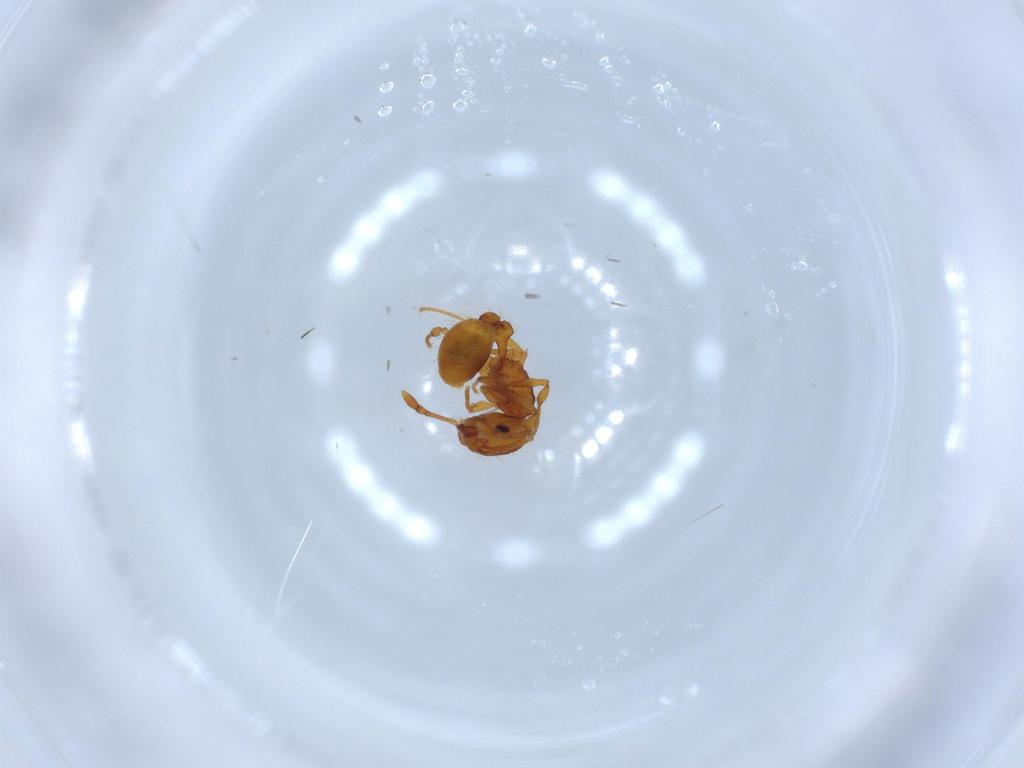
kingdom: Animalia
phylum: Arthropoda
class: Insecta
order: Hymenoptera
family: Formicidae
